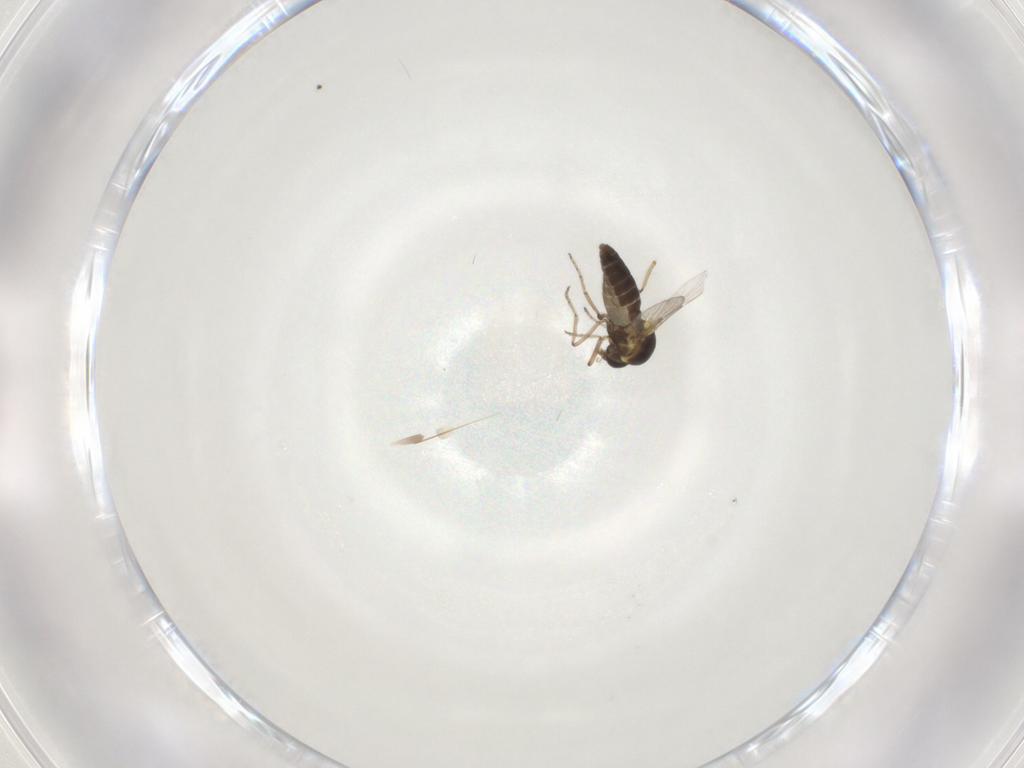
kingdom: Animalia
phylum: Arthropoda
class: Insecta
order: Diptera
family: Ceratopogonidae
